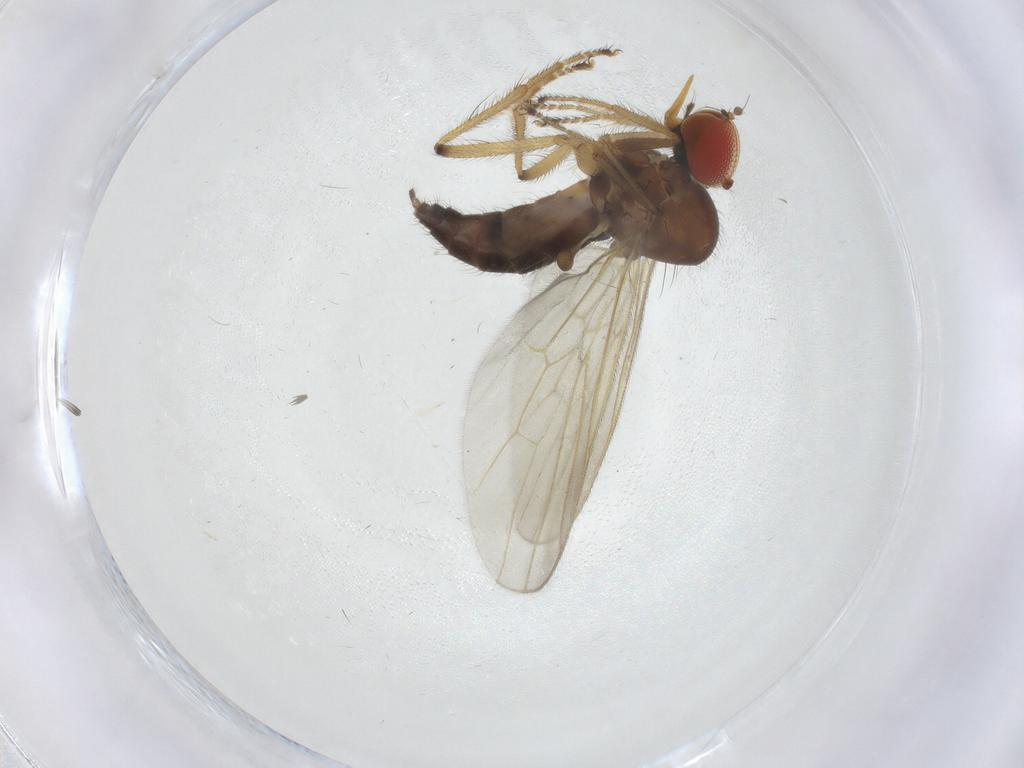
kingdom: Animalia
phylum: Arthropoda
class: Insecta
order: Diptera
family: Hybotidae
